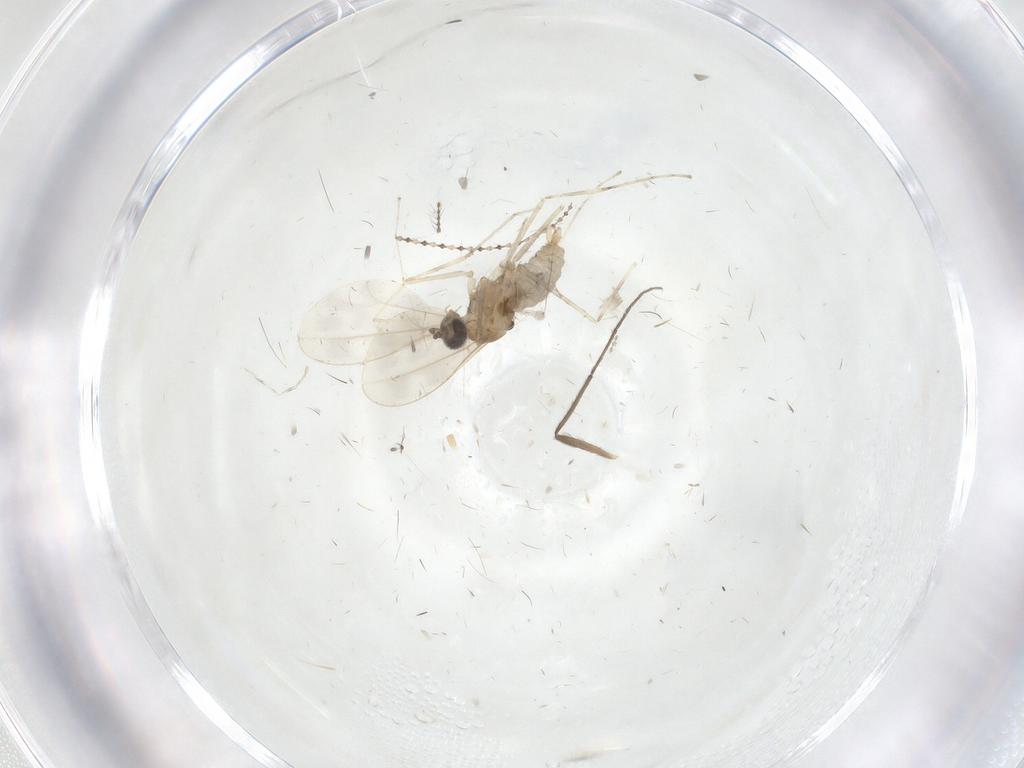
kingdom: Animalia
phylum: Arthropoda
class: Insecta
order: Diptera
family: Cecidomyiidae
